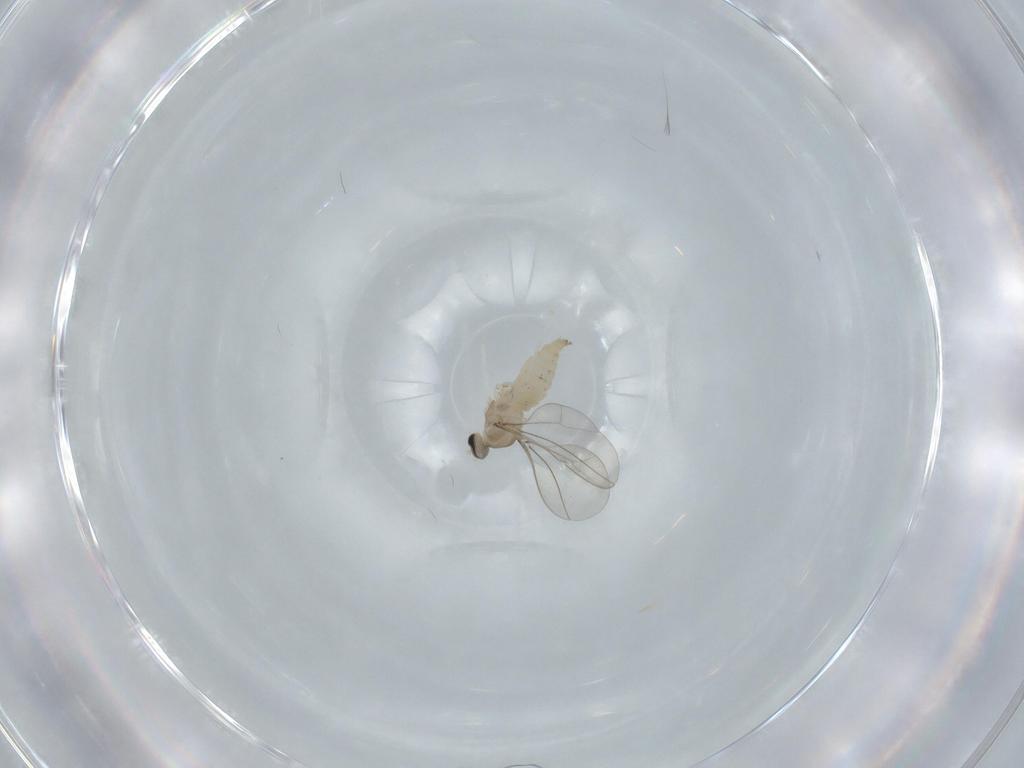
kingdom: Animalia
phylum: Arthropoda
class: Insecta
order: Diptera
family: Cecidomyiidae
